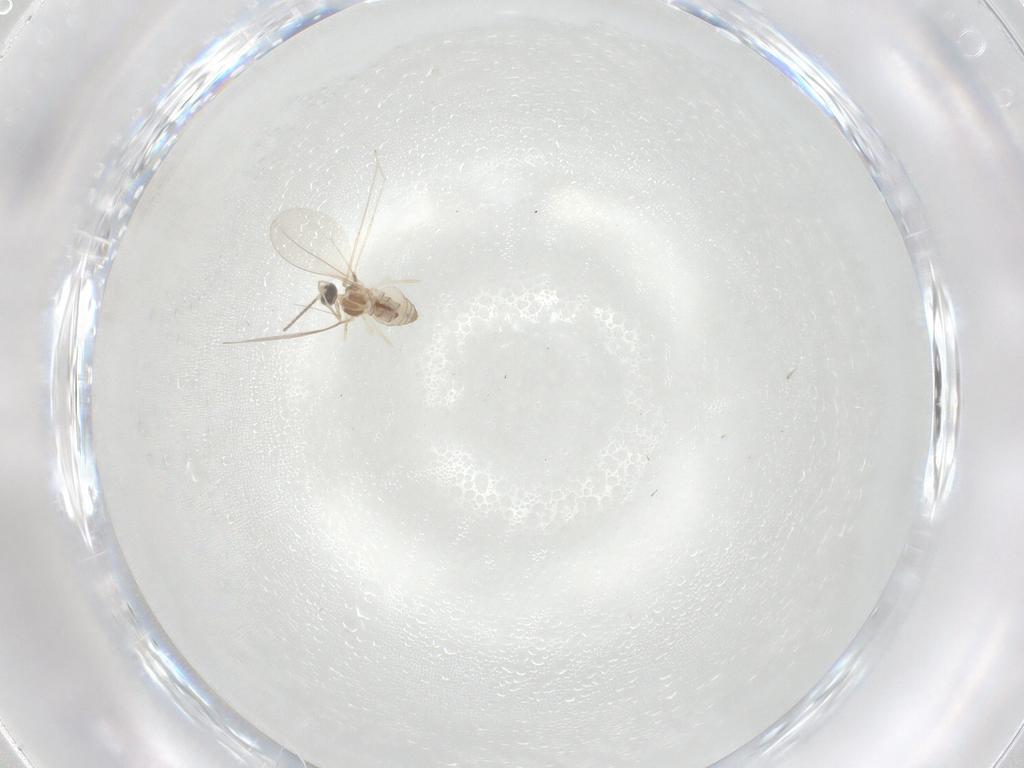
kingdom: Animalia
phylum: Arthropoda
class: Insecta
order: Diptera
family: Cecidomyiidae
